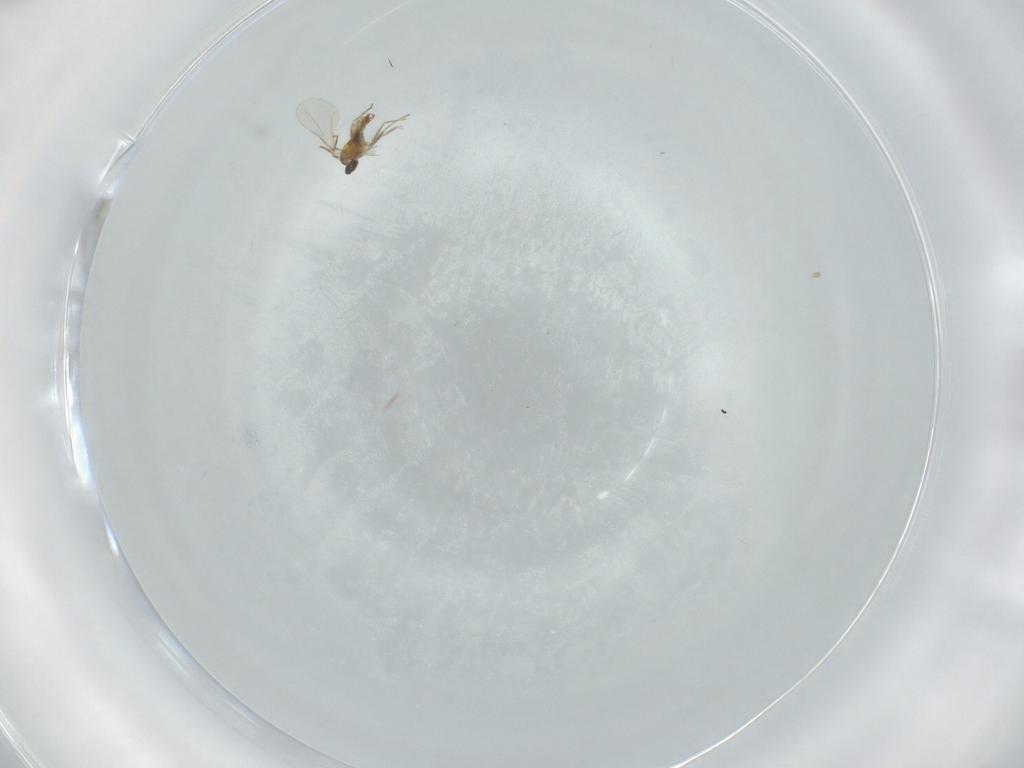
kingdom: Animalia
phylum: Arthropoda
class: Insecta
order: Diptera
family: Cecidomyiidae
